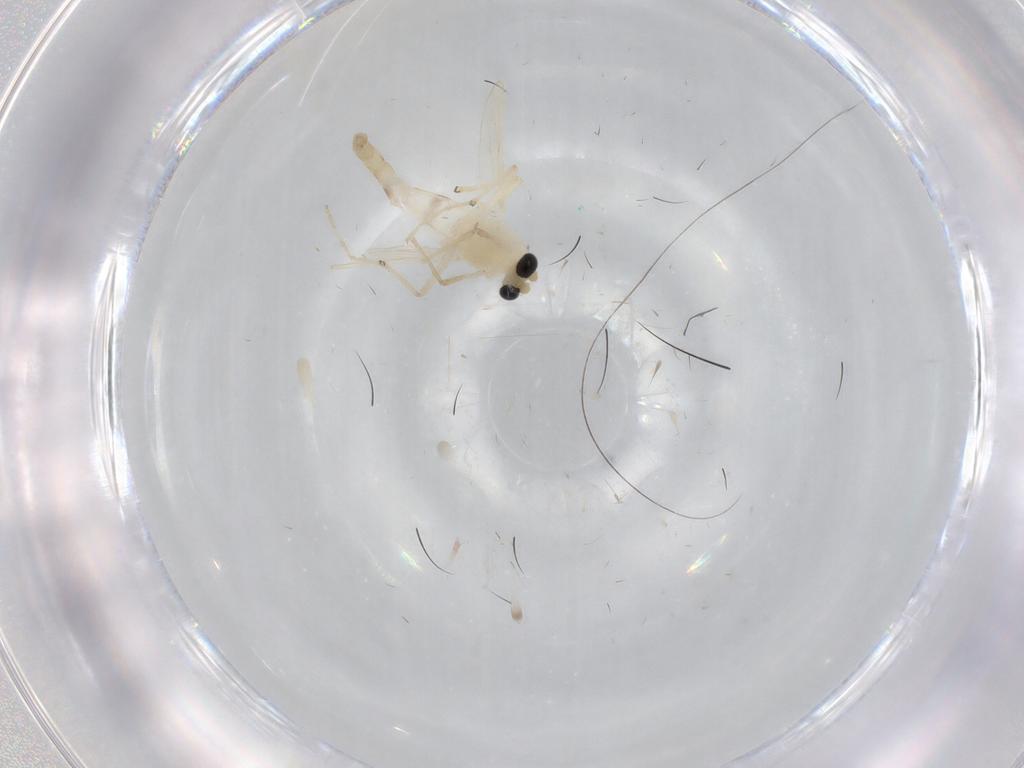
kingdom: Animalia
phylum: Arthropoda
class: Insecta
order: Diptera
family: Chironomidae
